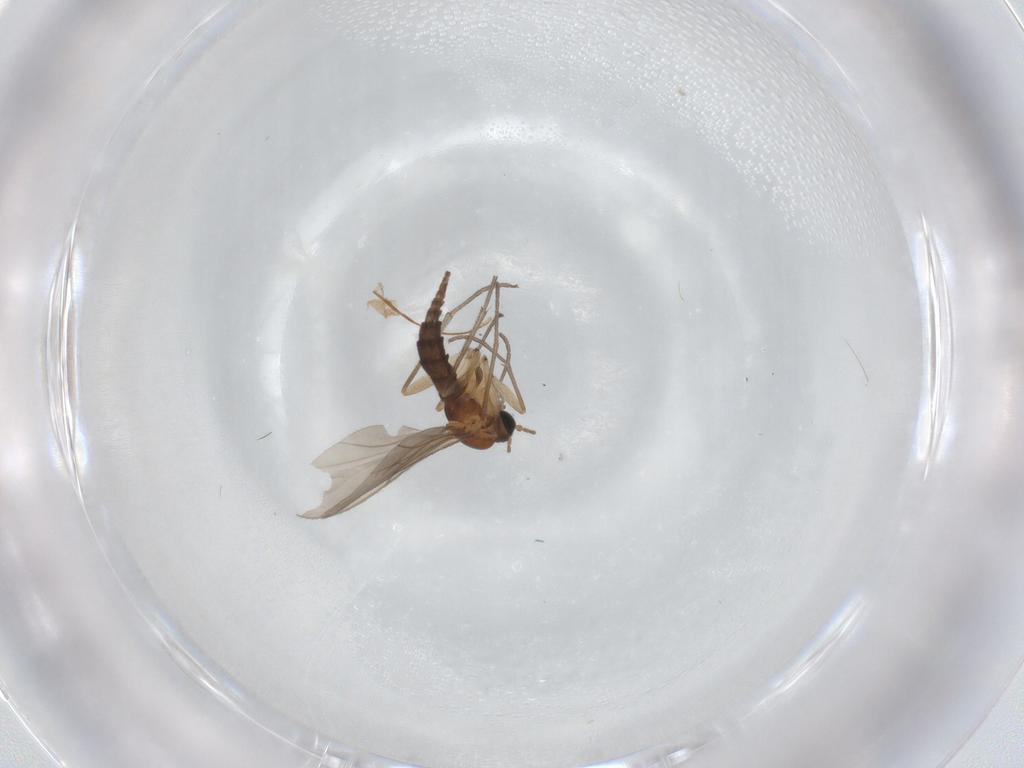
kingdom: Animalia
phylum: Arthropoda
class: Insecta
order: Diptera
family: Sciaridae
